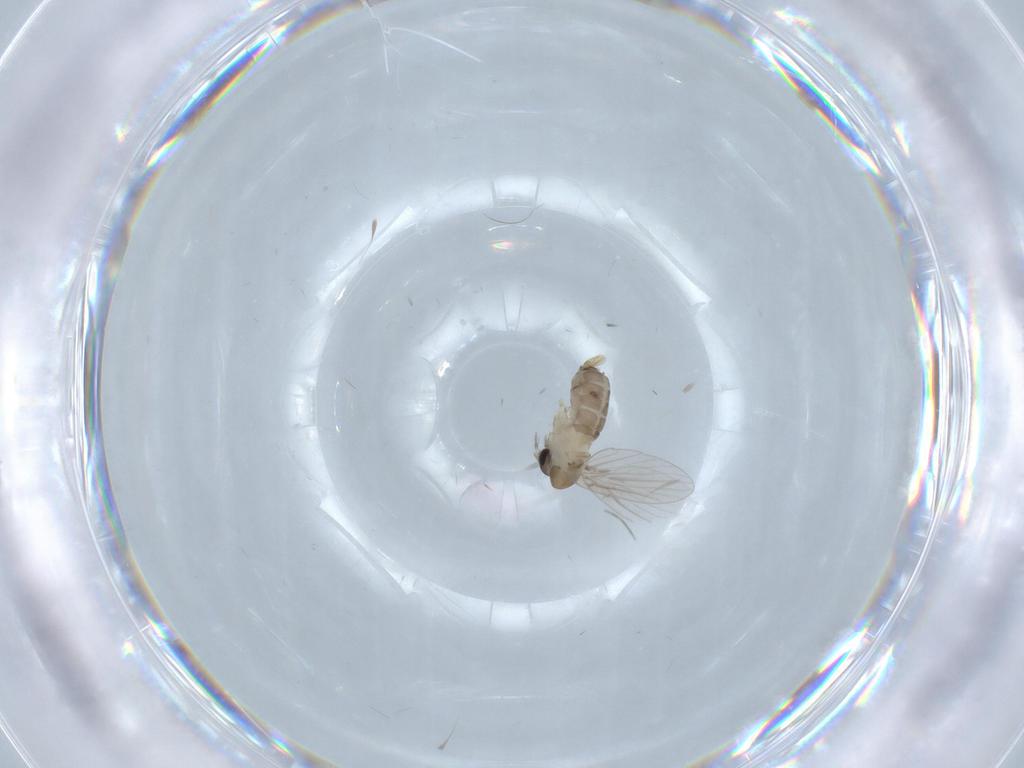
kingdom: Animalia
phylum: Arthropoda
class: Insecta
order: Diptera
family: Psychodidae
